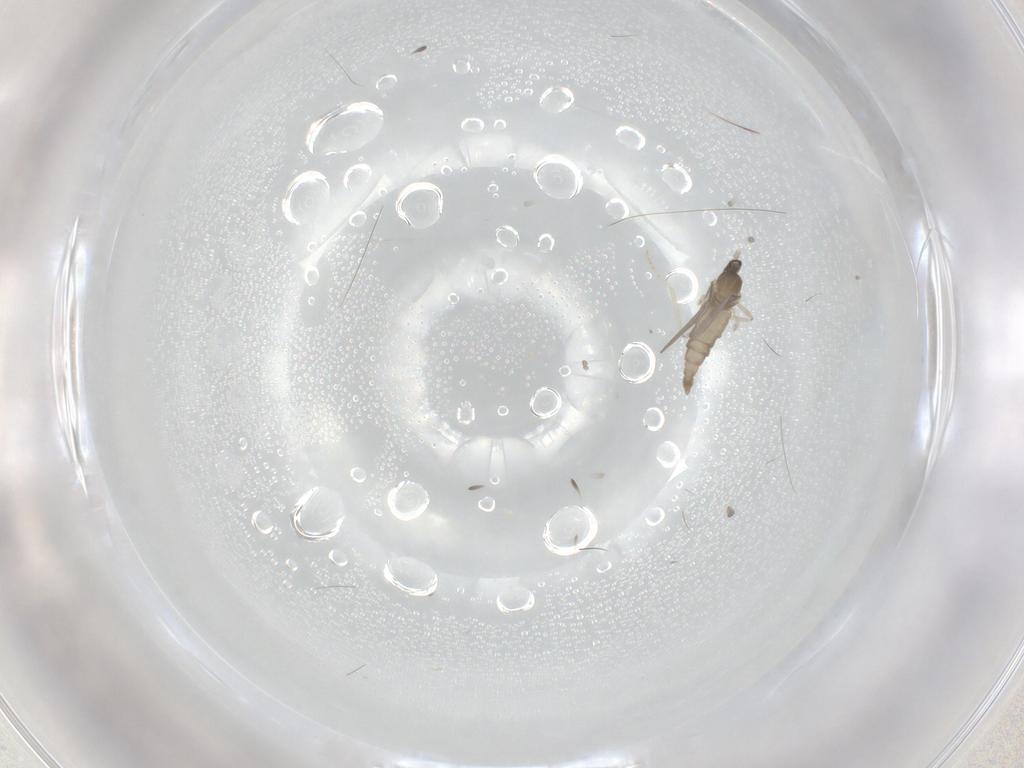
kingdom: Animalia
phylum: Arthropoda
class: Insecta
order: Diptera
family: Cecidomyiidae
